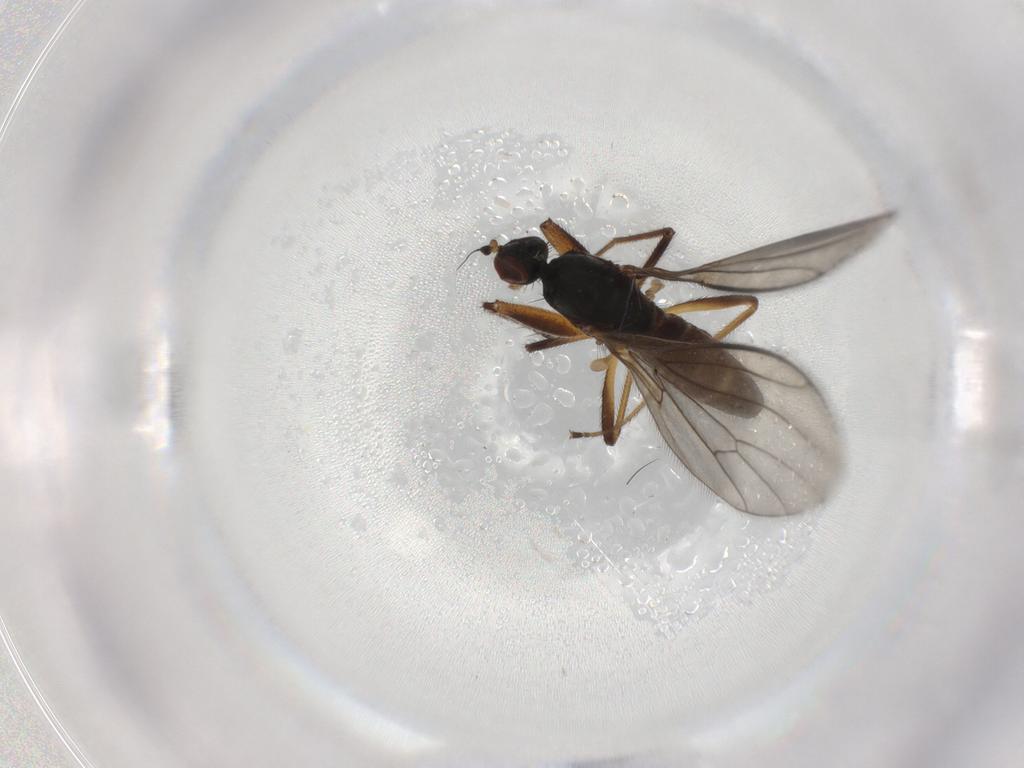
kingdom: Animalia
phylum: Arthropoda
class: Insecta
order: Diptera
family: Empididae
